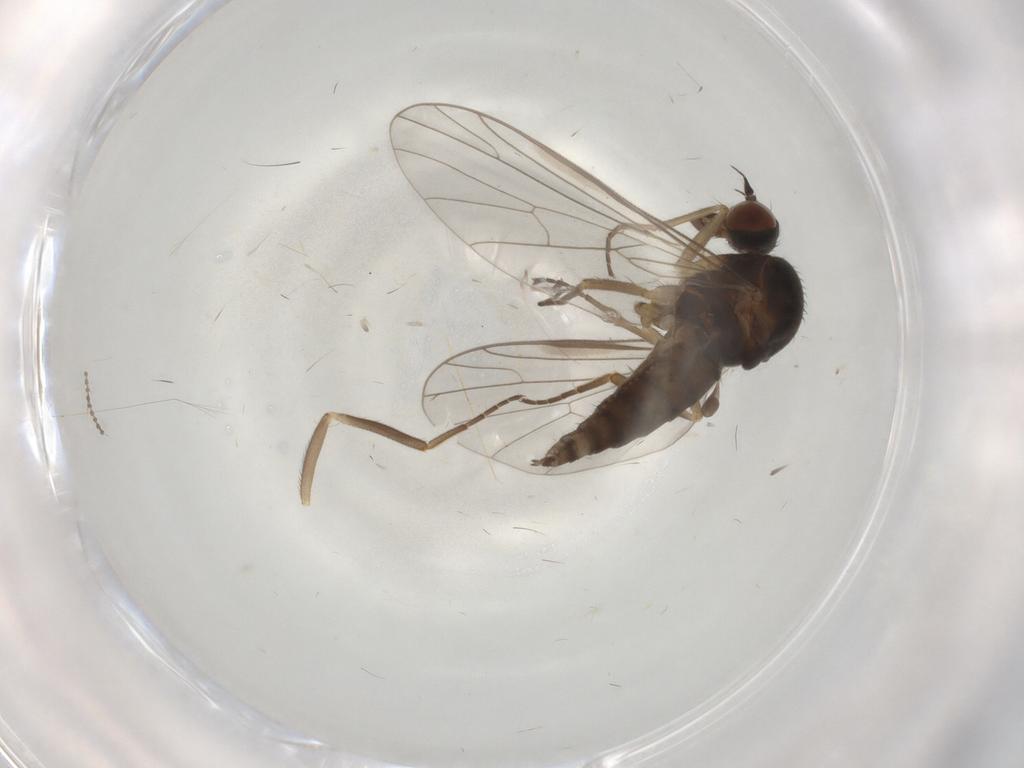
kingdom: Animalia
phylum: Arthropoda
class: Insecta
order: Diptera
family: Empididae
